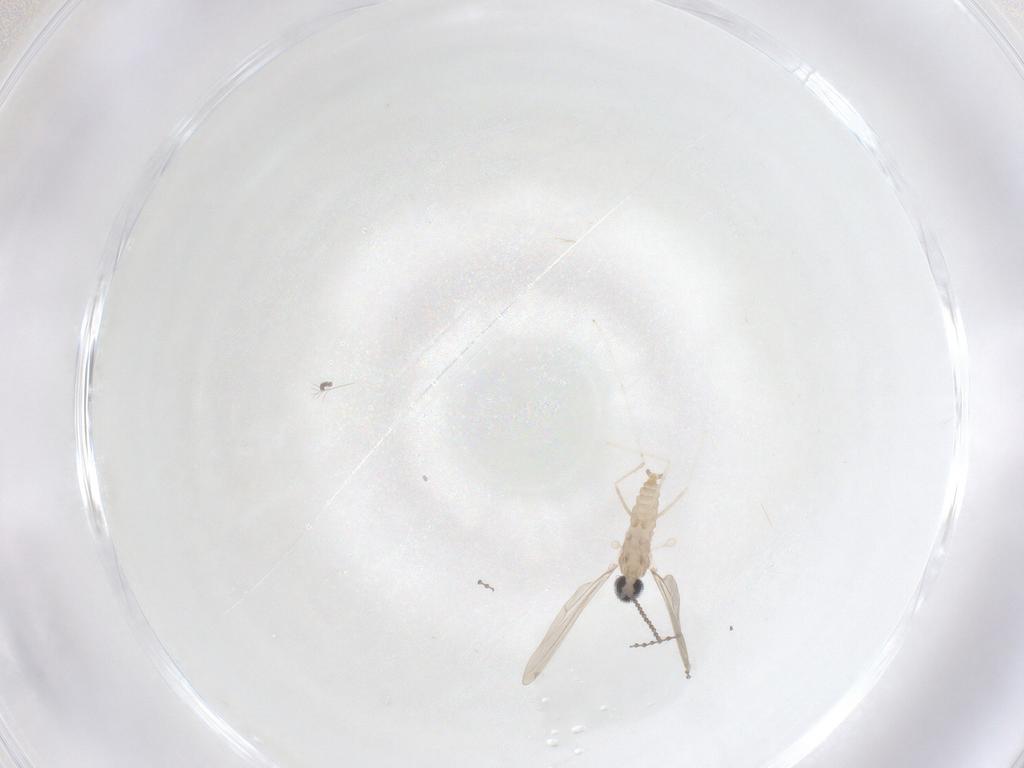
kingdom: Animalia
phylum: Arthropoda
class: Insecta
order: Diptera
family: Cecidomyiidae
